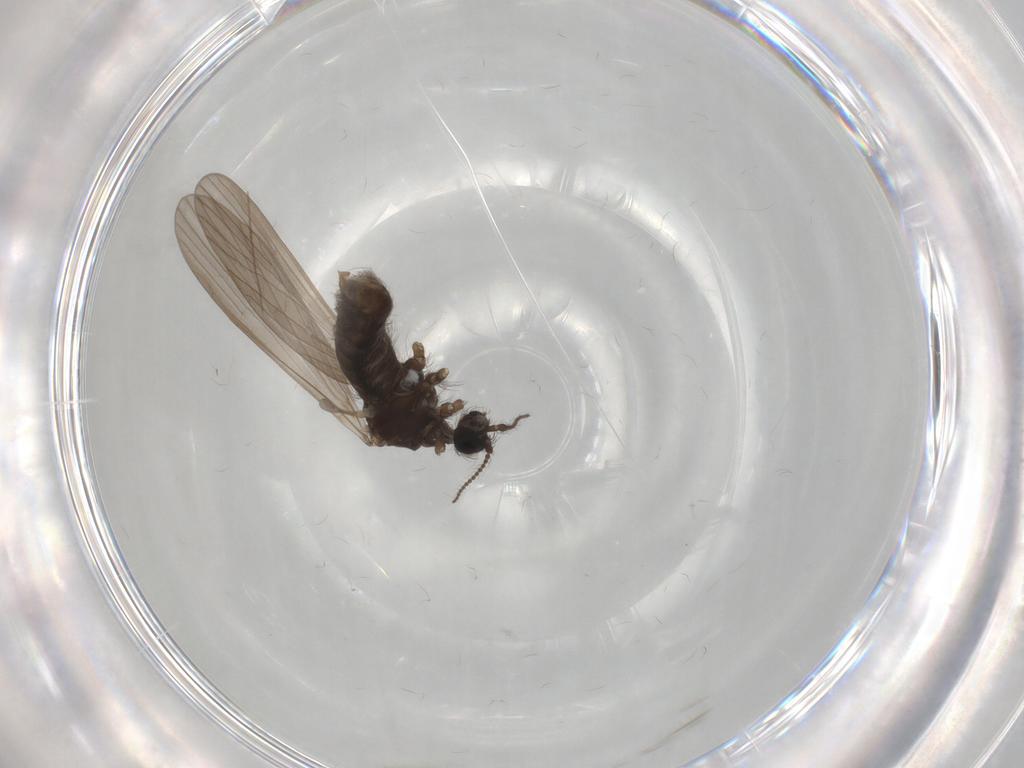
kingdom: Animalia
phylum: Arthropoda
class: Insecta
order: Diptera
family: Limoniidae
